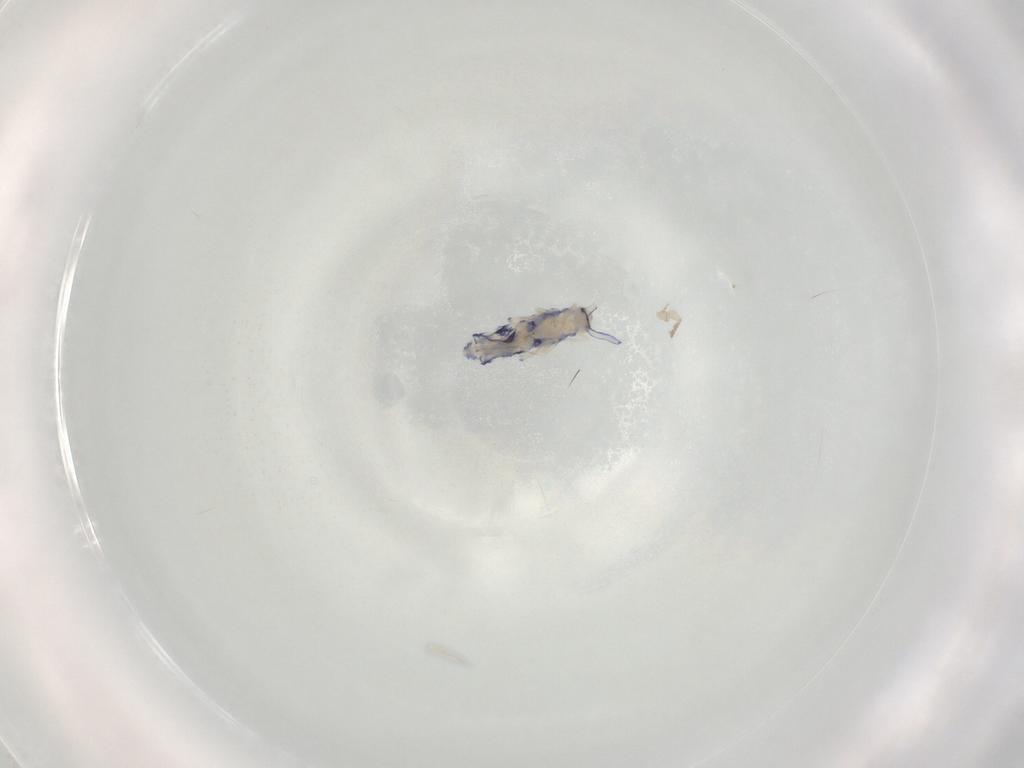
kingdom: Animalia
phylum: Arthropoda
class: Collembola
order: Entomobryomorpha
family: Entomobryidae
